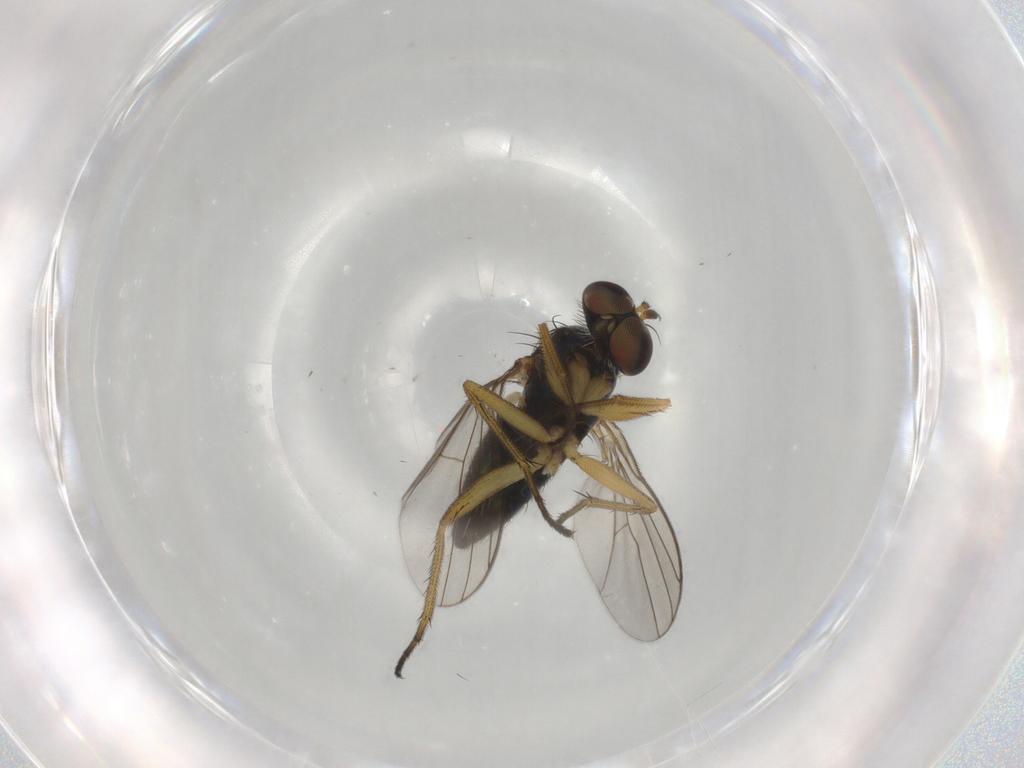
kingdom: Animalia
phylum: Arthropoda
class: Insecta
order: Diptera
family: Dolichopodidae
